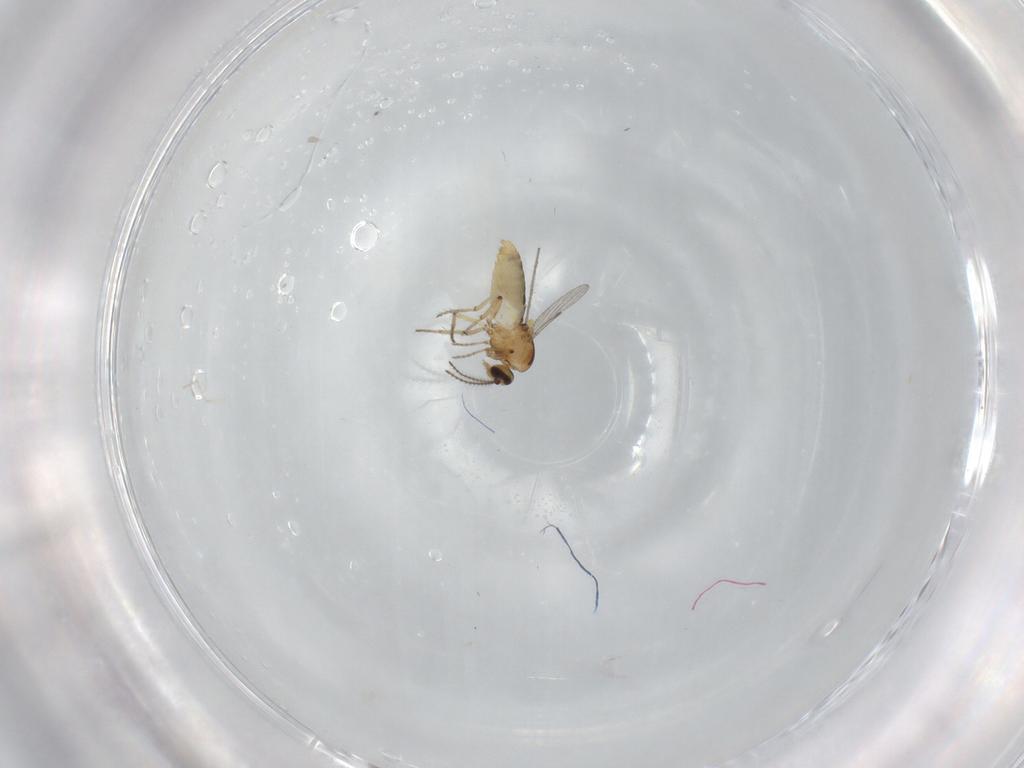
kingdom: Animalia
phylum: Arthropoda
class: Insecta
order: Diptera
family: Ceratopogonidae
